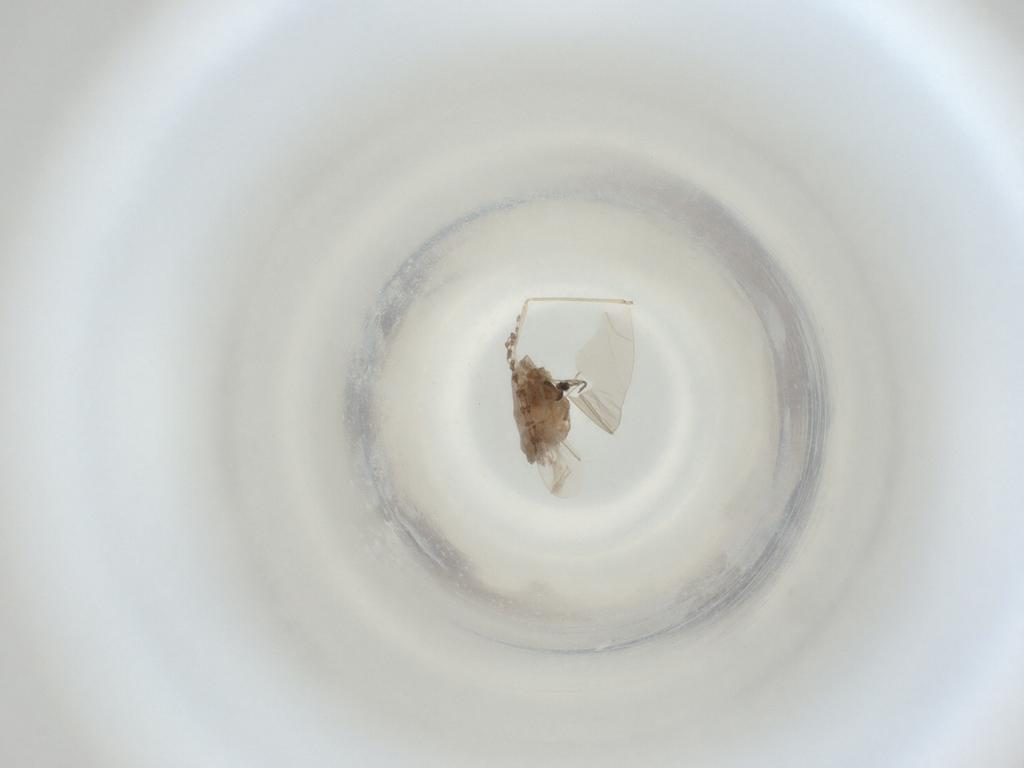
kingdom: Animalia
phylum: Arthropoda
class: Insecta
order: Diptera
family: Cecidomyiidae
